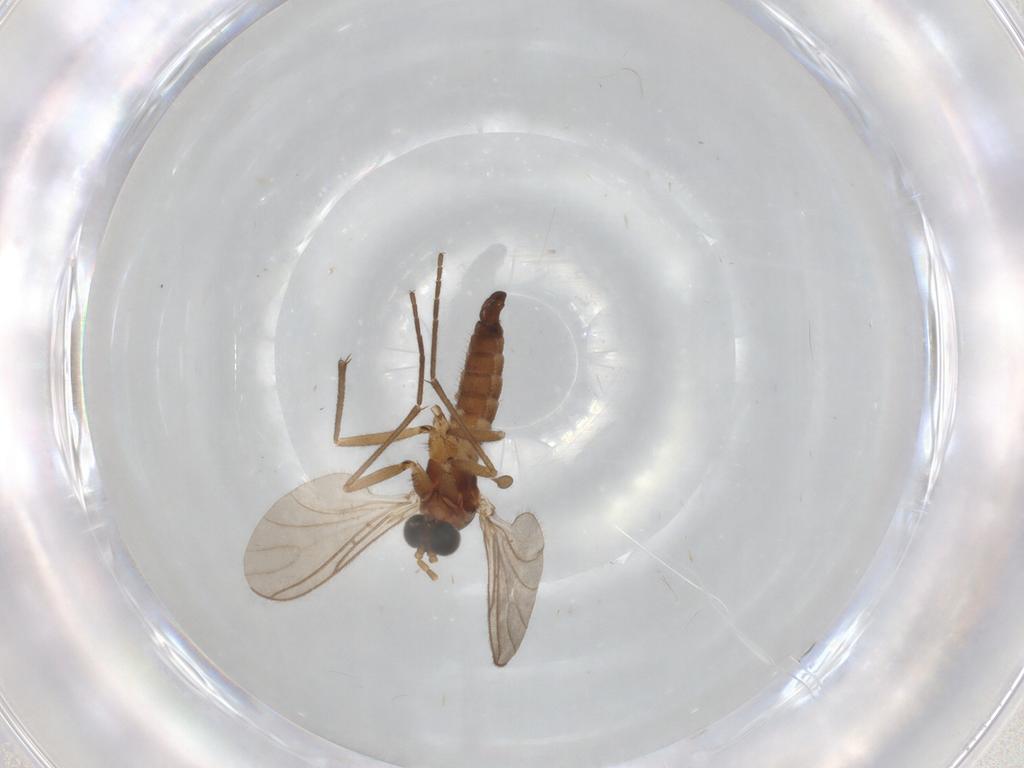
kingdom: Animalia
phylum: Arthropoda
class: Insecta
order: Diptera
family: Sciaridae
